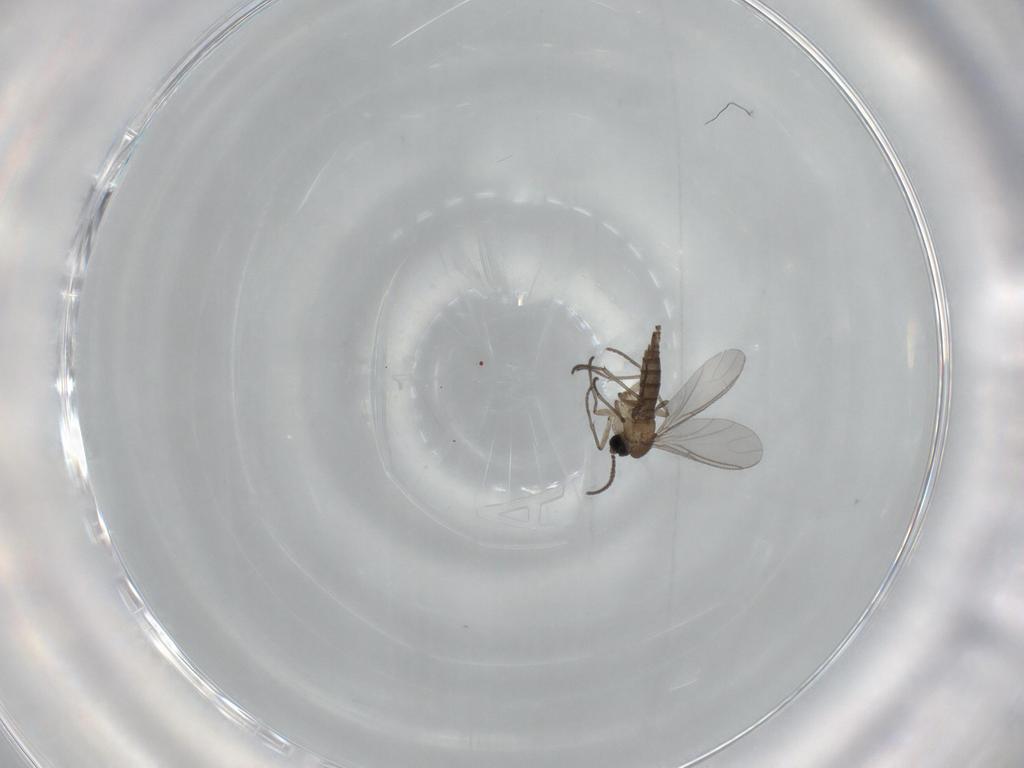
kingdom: Animalia
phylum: Arthropoda
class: Insecta
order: Diptera
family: Sciaridae
